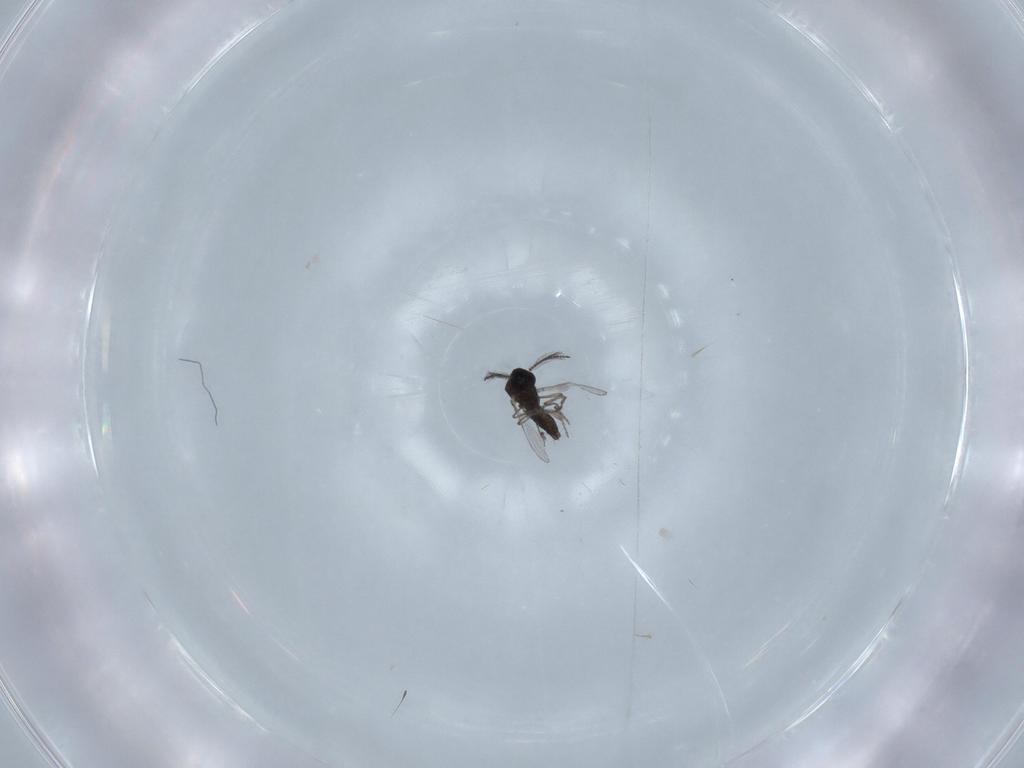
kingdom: Animalia
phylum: Arthropoda
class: Insecta
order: Diptera
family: Ceratopogonidae
